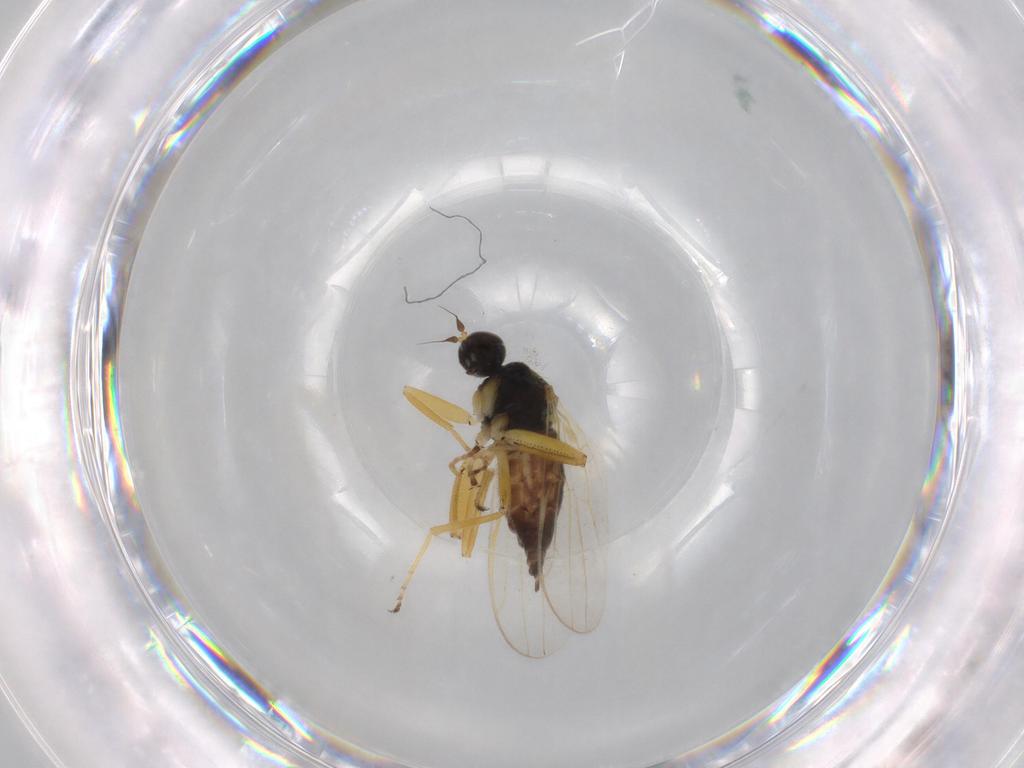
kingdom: Animalia
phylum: Arthropoda
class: Insecta
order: Diptera
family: Hybotidae
